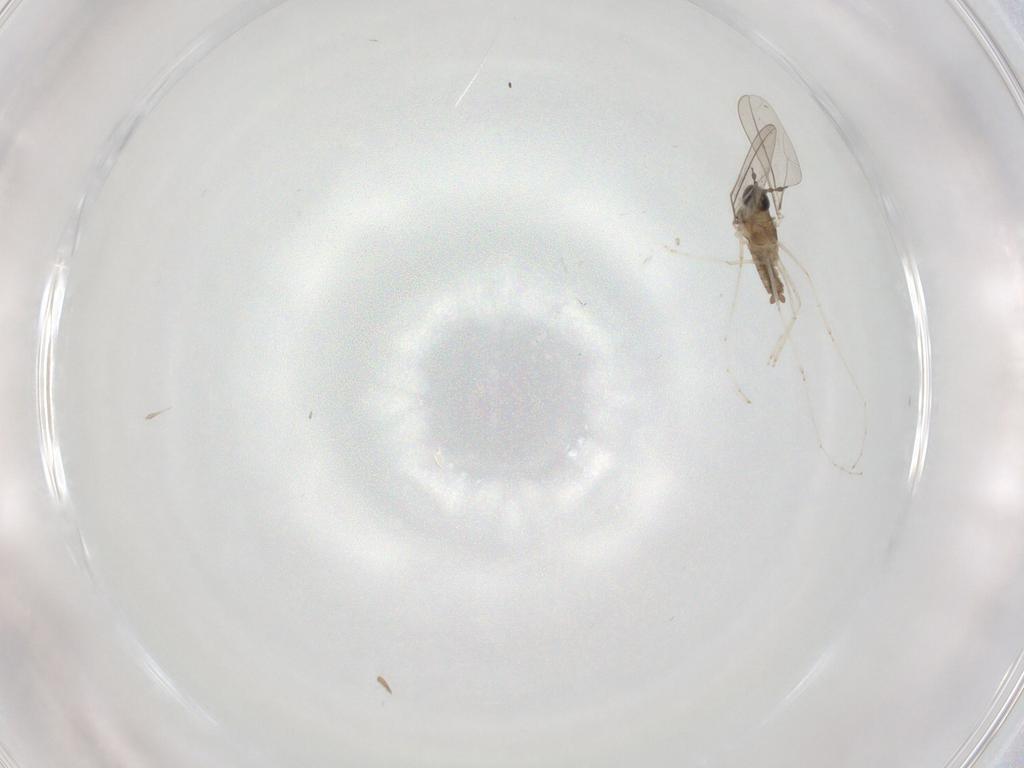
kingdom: Animalia
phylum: Arthropoda
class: Insecta
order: Diptera
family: Cecidomyiidae
